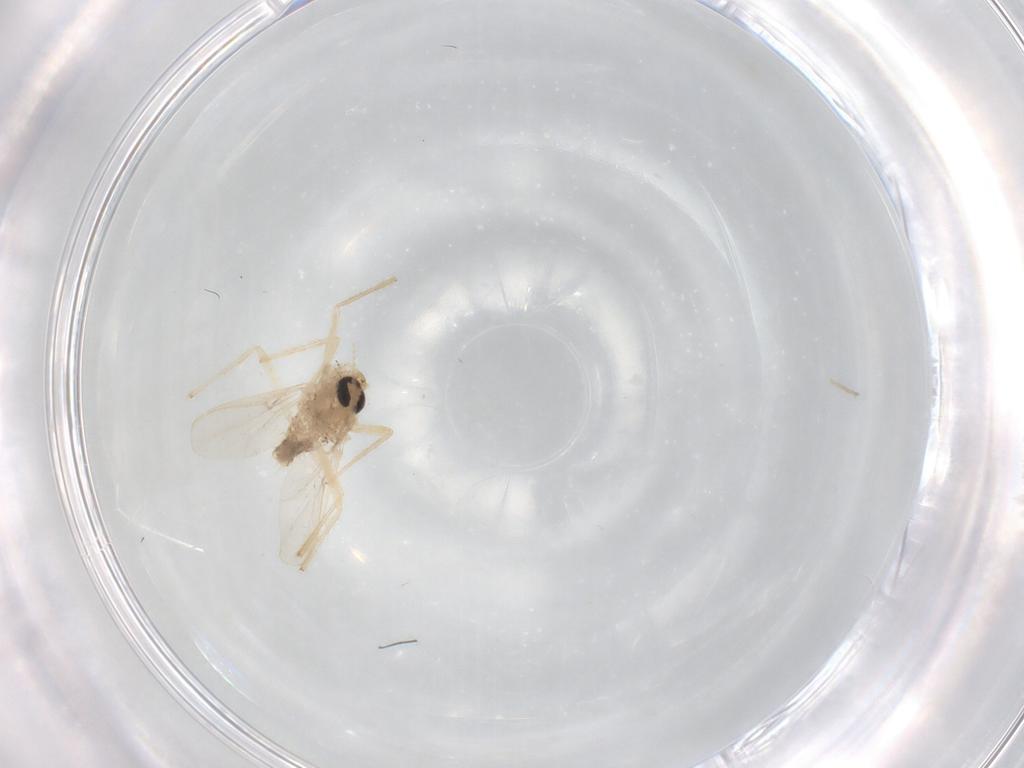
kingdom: Animalia
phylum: Arthropoda
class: Insecta
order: Diptera
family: Chironomidae
